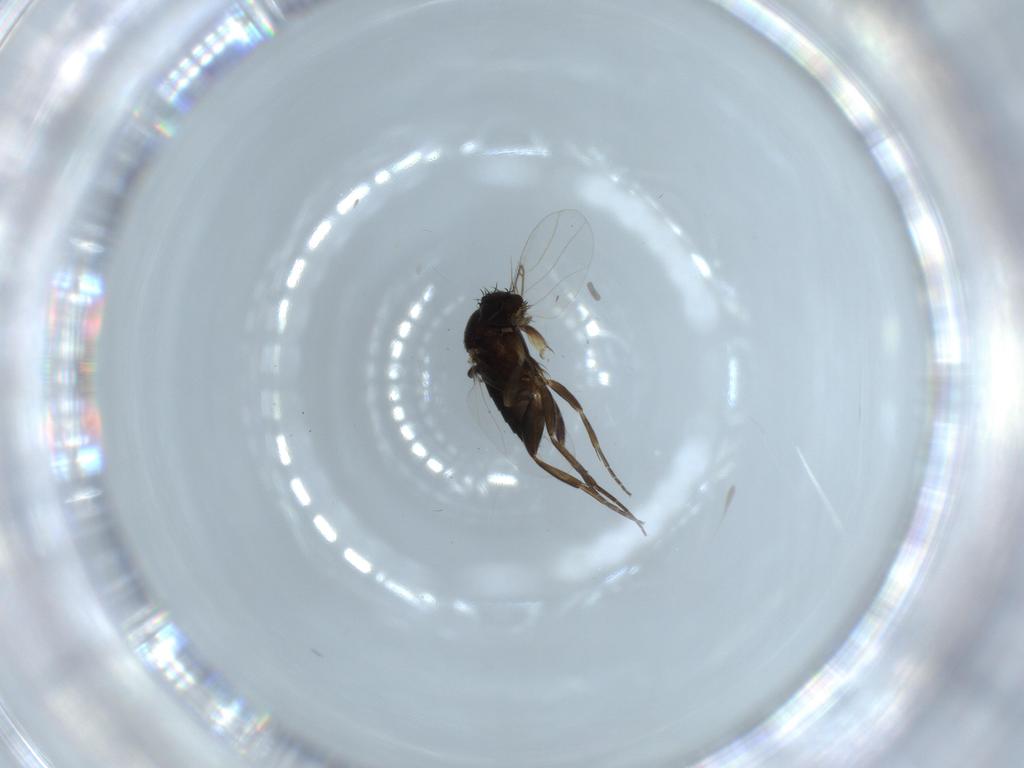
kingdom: Animalia
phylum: Arthropoda
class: Insecta
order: Diptera
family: Phoridae
